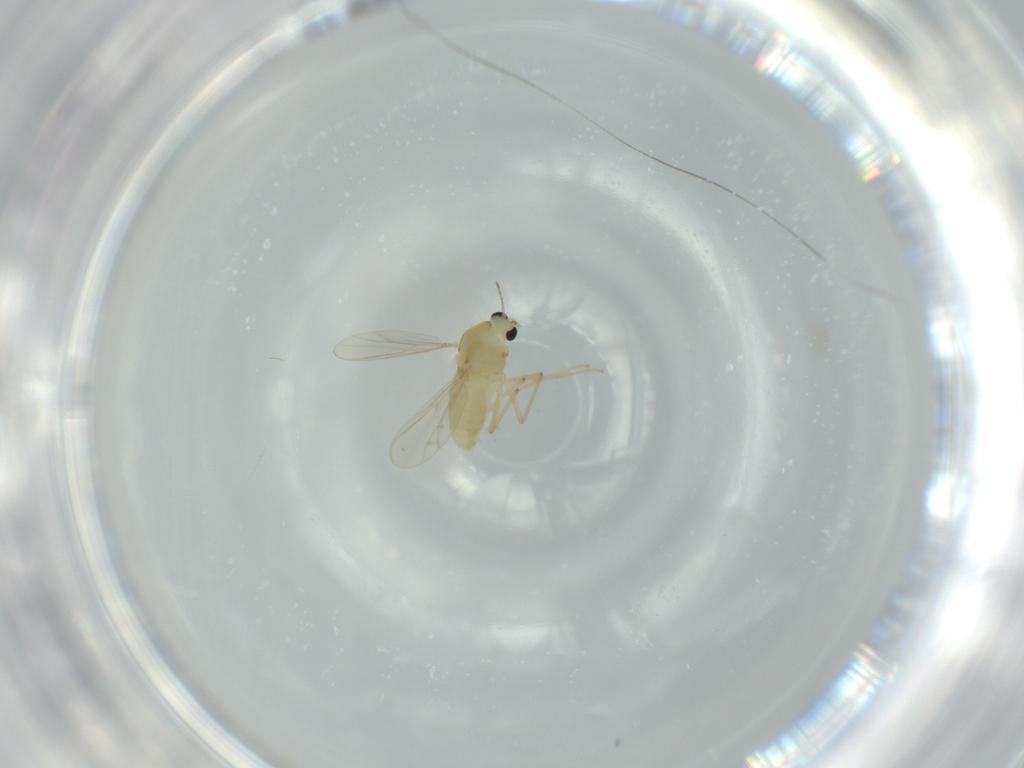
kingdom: Animalia
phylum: Arthropoda
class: Insecta
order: Diptera
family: Chironomidae
